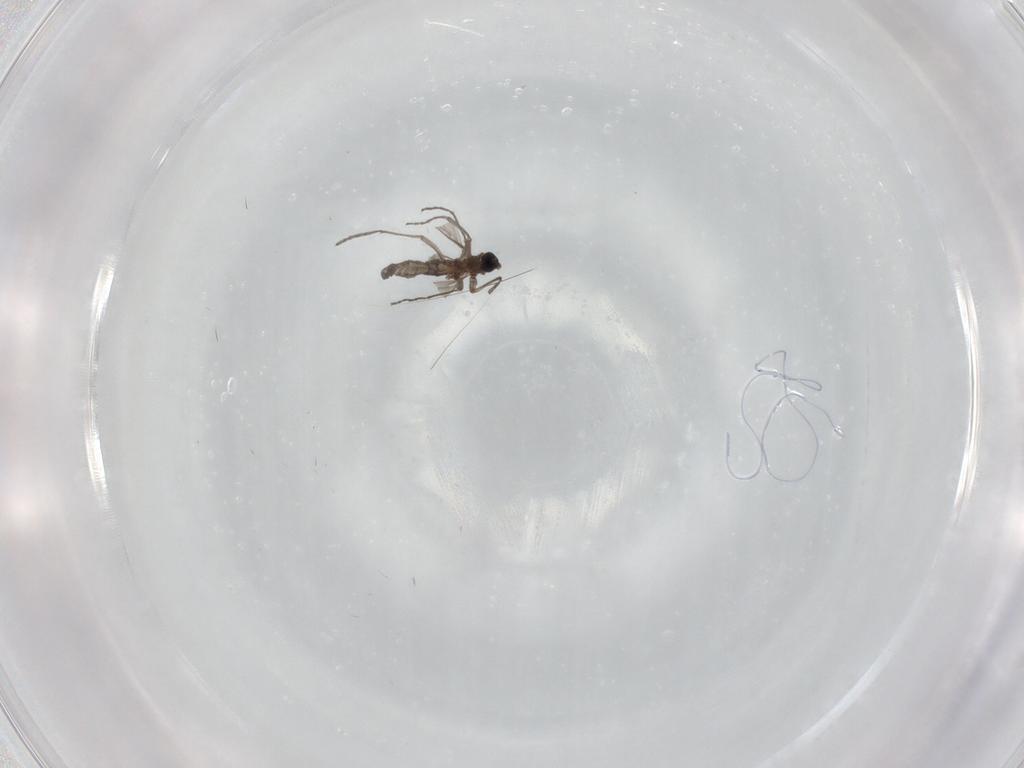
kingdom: Animalia
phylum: Arthropoda
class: Insecta
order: Diptera
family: Sciaridae
